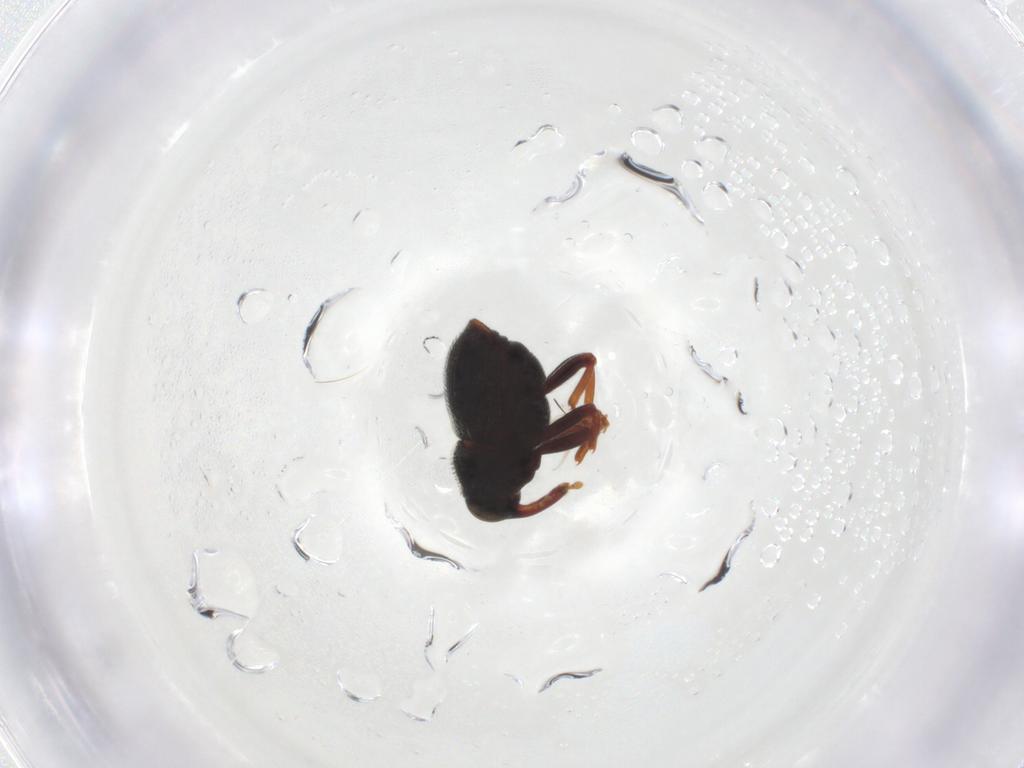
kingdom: Animalia
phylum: Arthropoda
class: Insecta
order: Coleoptera
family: Curculionidae
